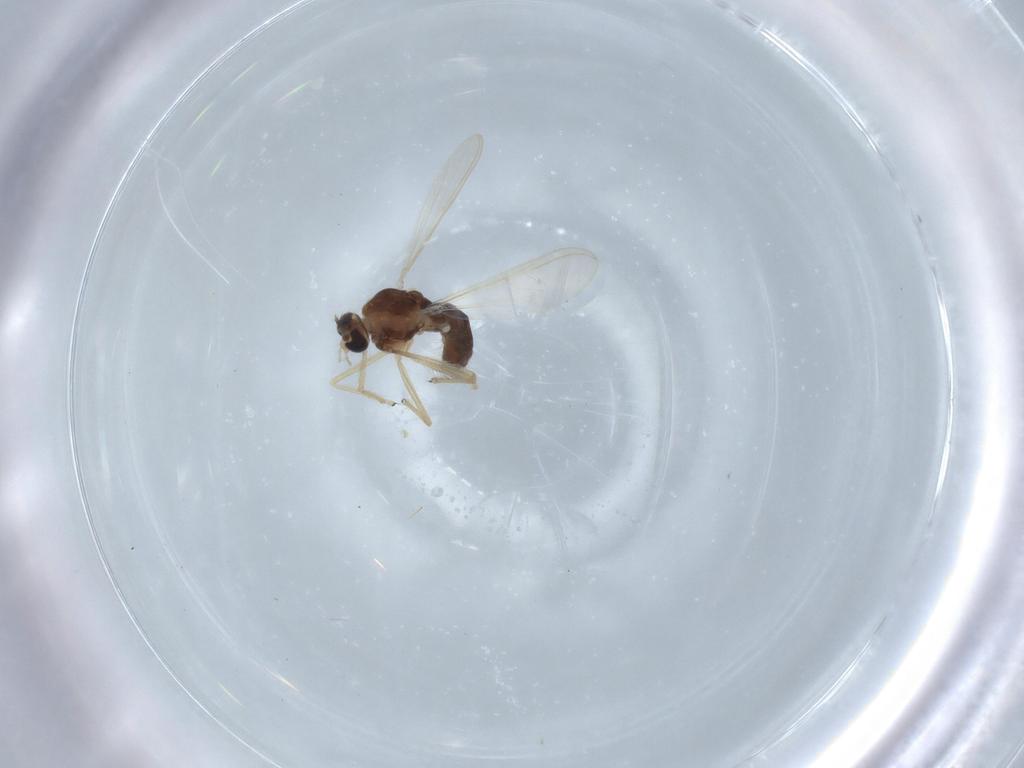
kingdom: Animalia
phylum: Arthropoda
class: Insecta
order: Diptera
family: Chironomidae
